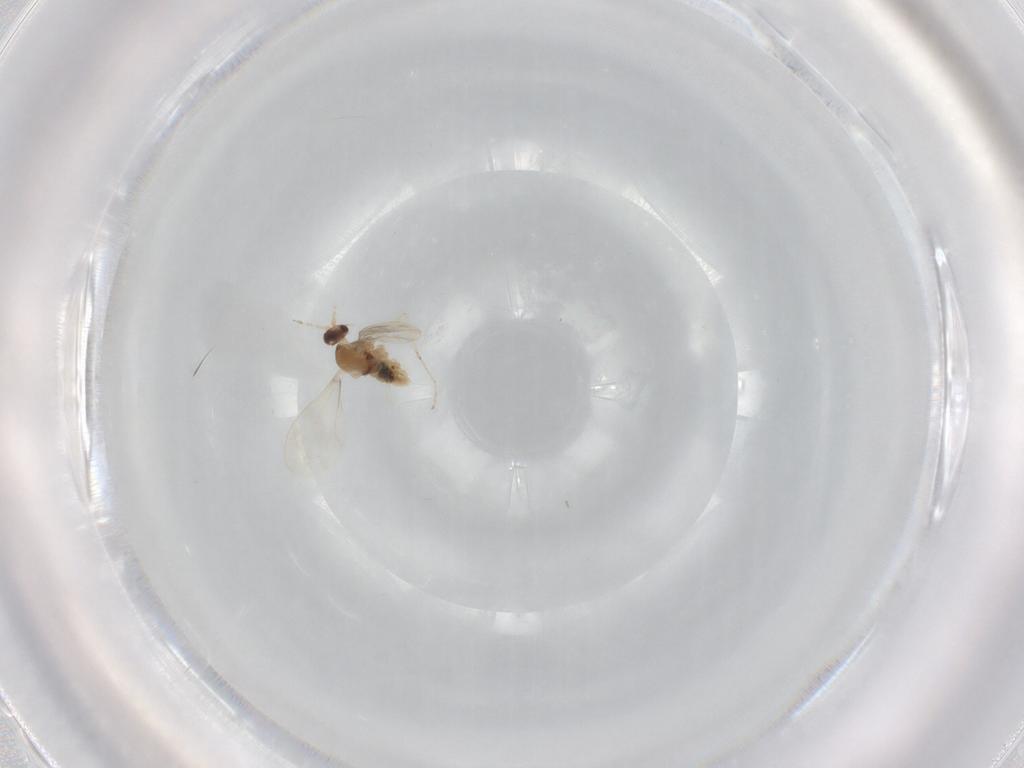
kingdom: Animalia
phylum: Arthropoda
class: Insecta
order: Diptera
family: Cecidomyiidae
